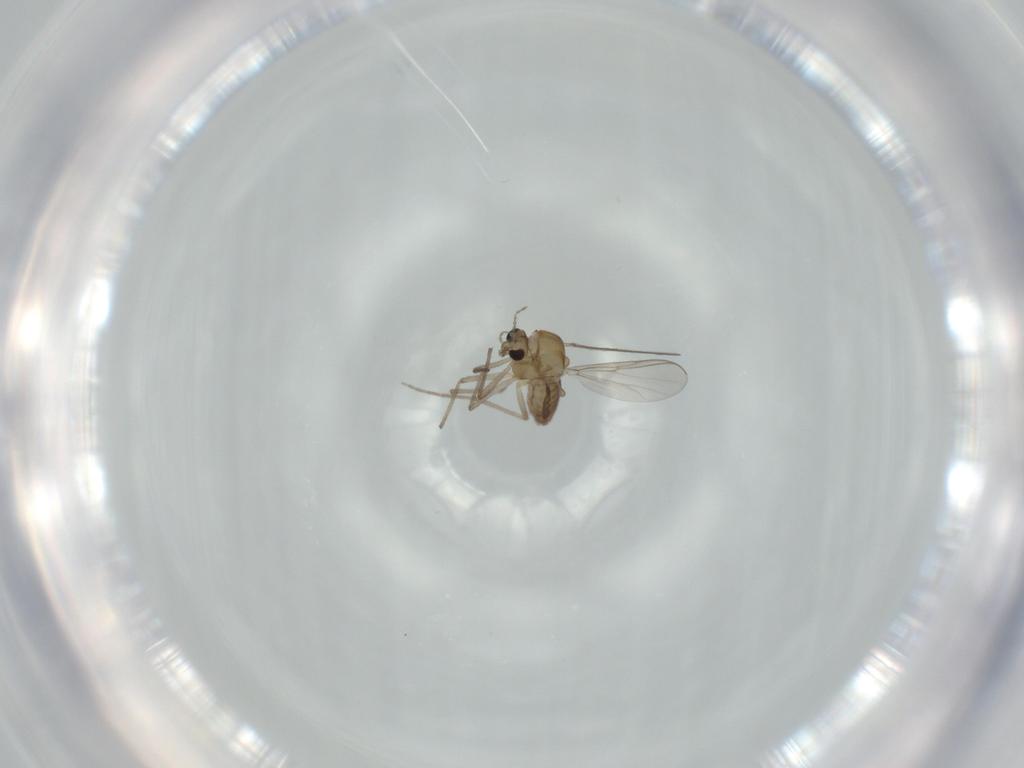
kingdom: Animalia
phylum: Arthropoda
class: Insecta
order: Diptera
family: Chironomidae
